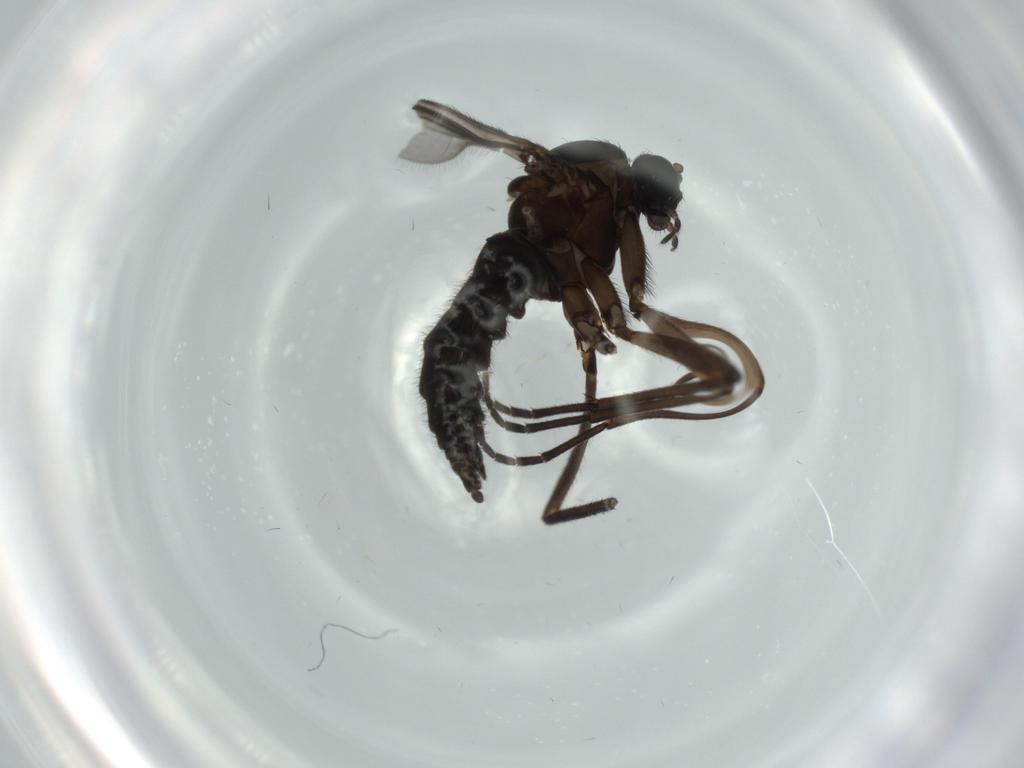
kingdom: Animalia
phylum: Arthropoda
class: Insecta
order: Diptera
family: Sciaridae
